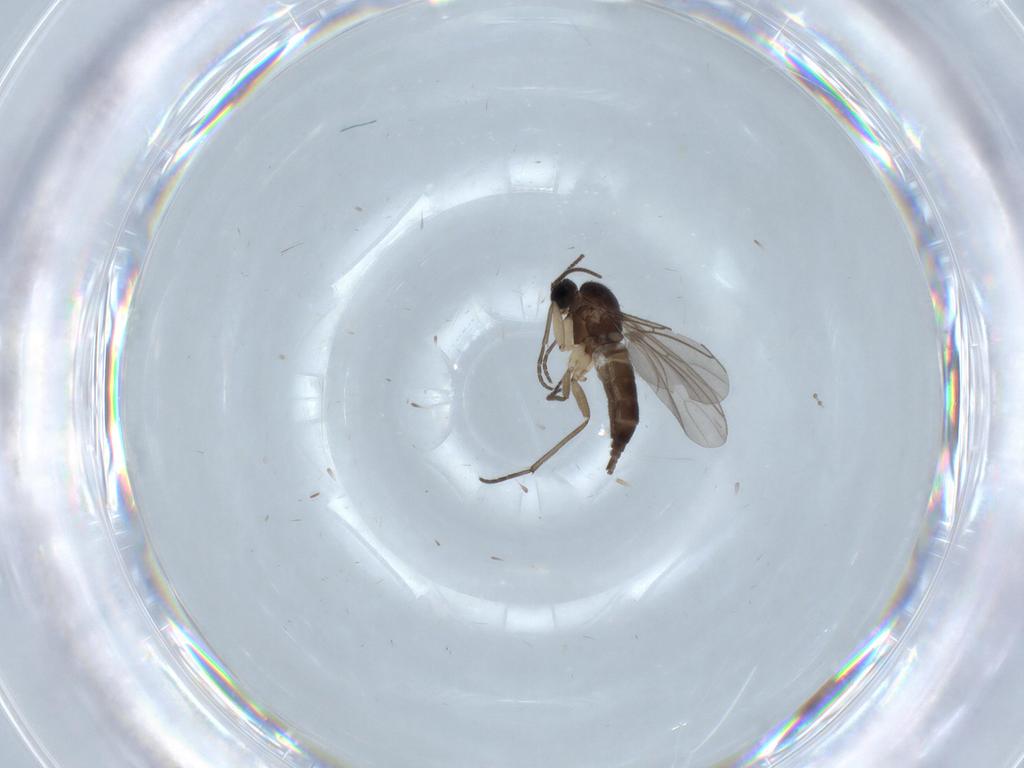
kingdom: Animalia
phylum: Arthropoda
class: Insecta
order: Diptera
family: Sciaridae
